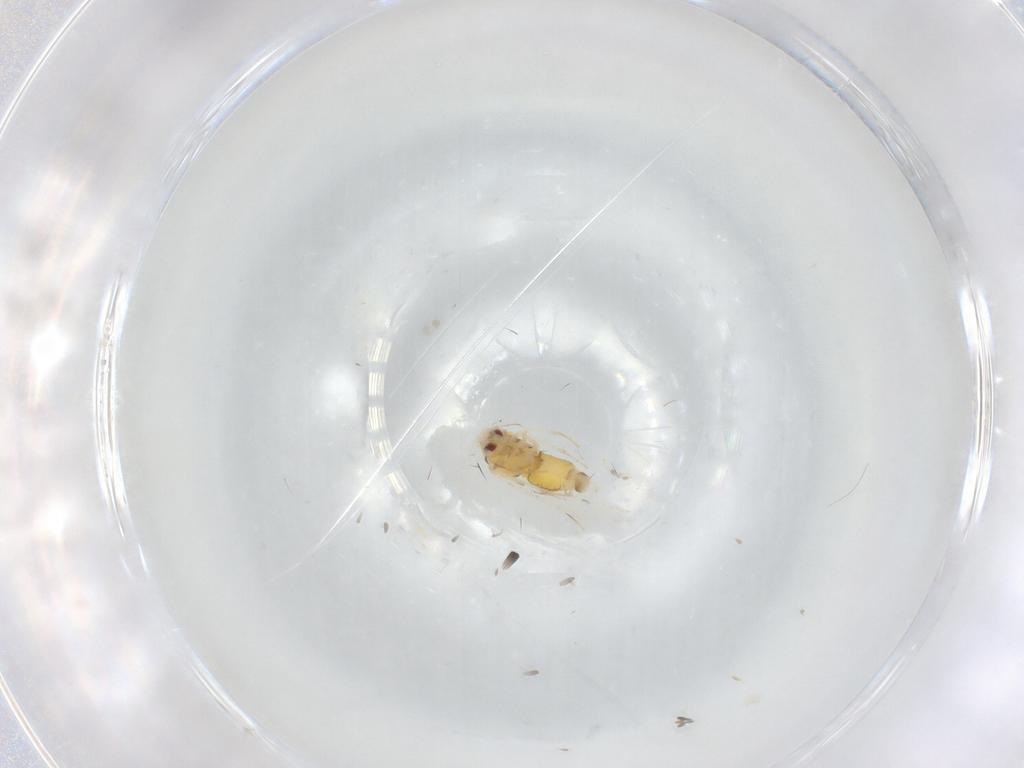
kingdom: Animalia
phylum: Arthropoda
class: Insecta
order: Hemiptera
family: Aleyrodidae
